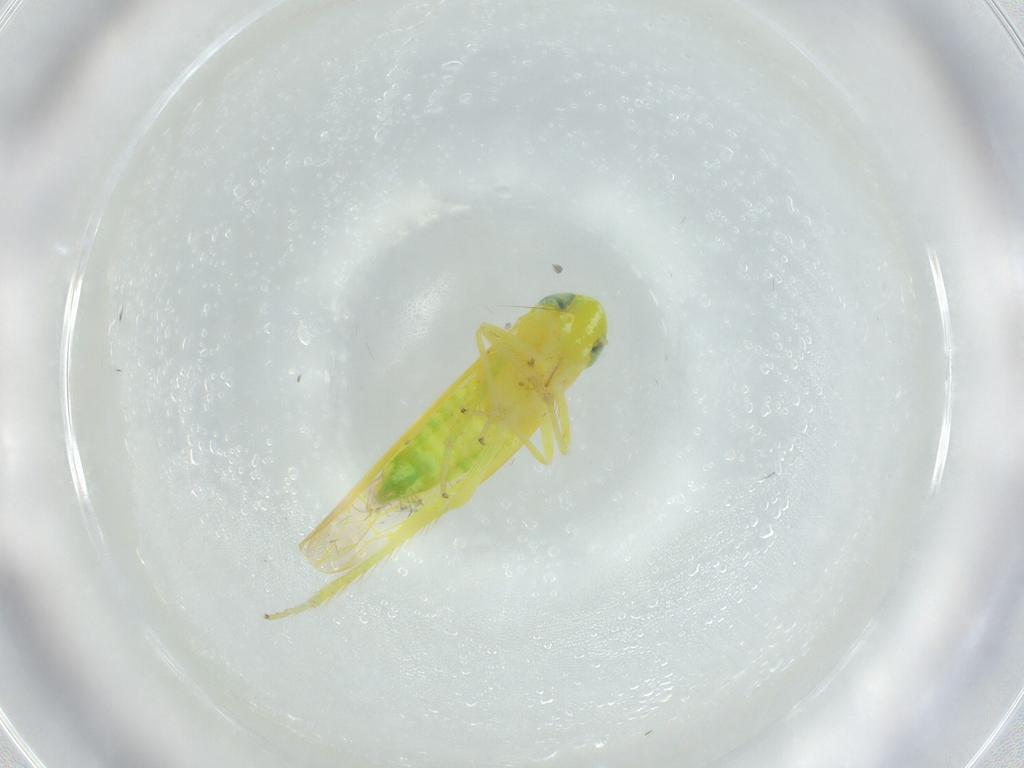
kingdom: Animalia
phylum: Arthropoda
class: Insecta
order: Hemiptera
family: Cicadellidae
